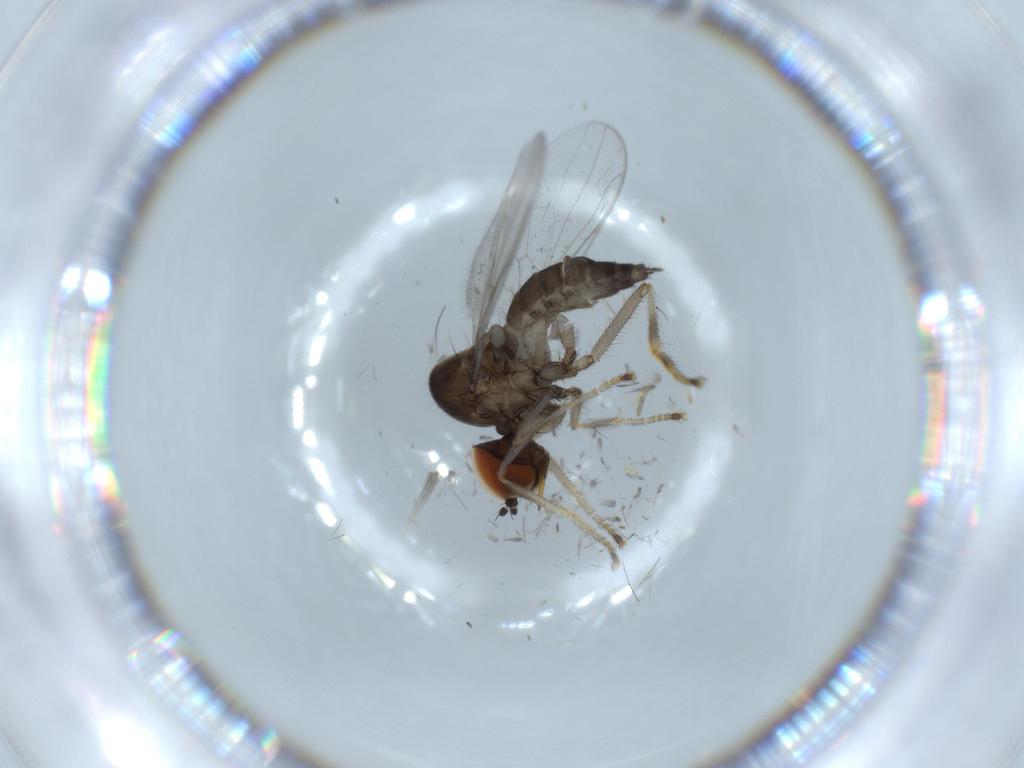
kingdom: Animalia
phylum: Arthropoda
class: Insecta
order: Diptera
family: Hybotidae
